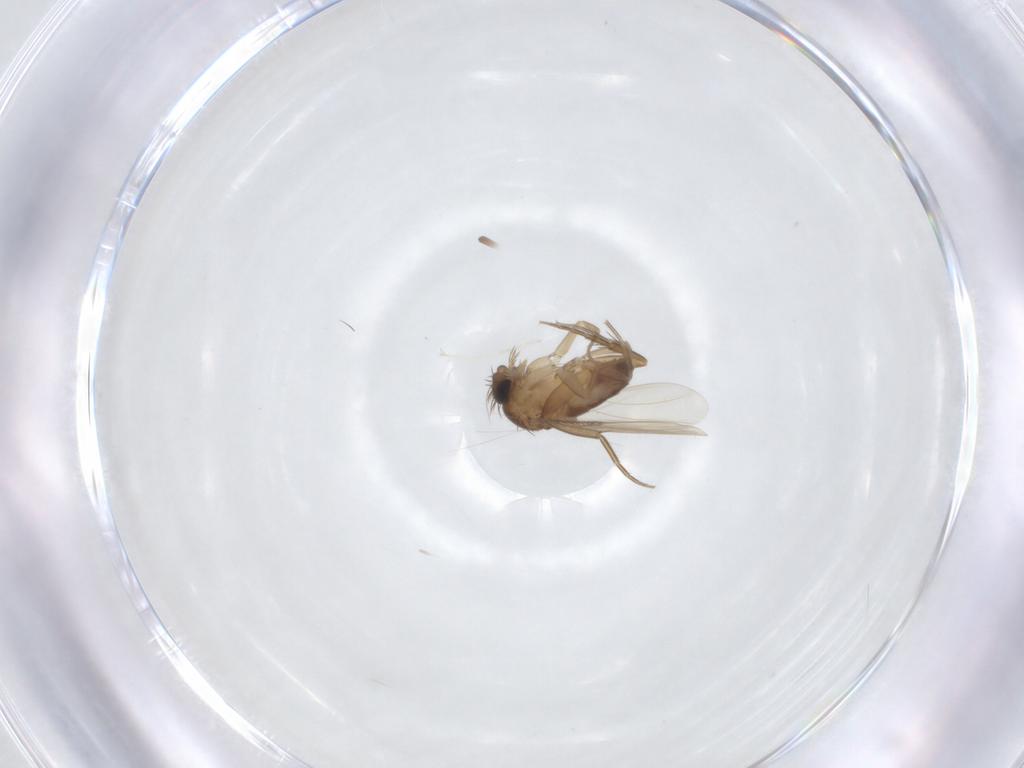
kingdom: Animalia
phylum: Arthropoda
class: Insecta
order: Diptera
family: Phoridae
